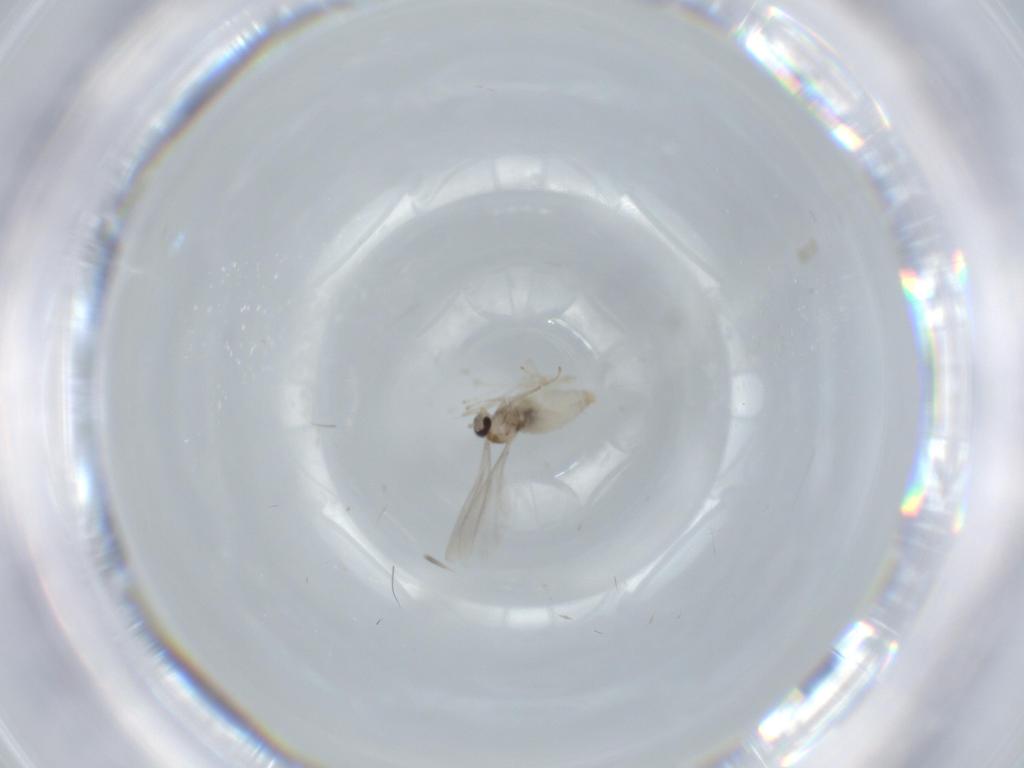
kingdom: Animalia
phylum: Arthropoda
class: Insecta
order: Diptera
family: Cecidomyiidae
